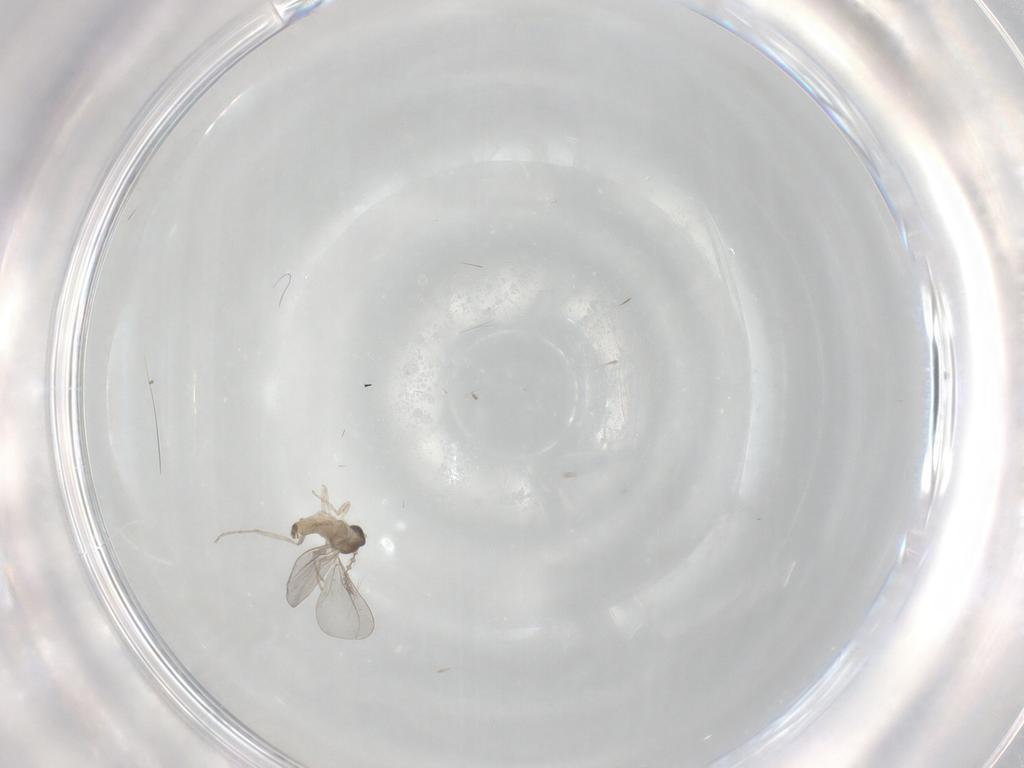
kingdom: Animalia
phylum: Arthropoda
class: Insecta
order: Diptera
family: Cecidomyiidae
